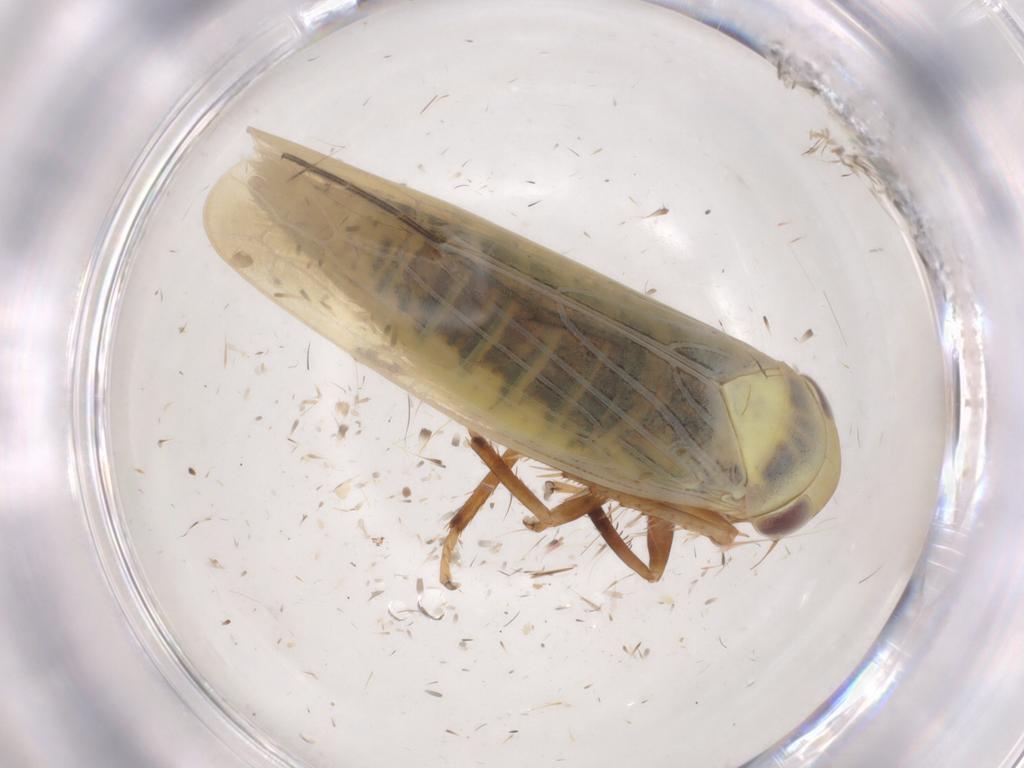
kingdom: Animalia
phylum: Arthropoda
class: Insecta
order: Hemiptera
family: Cicadellidae
